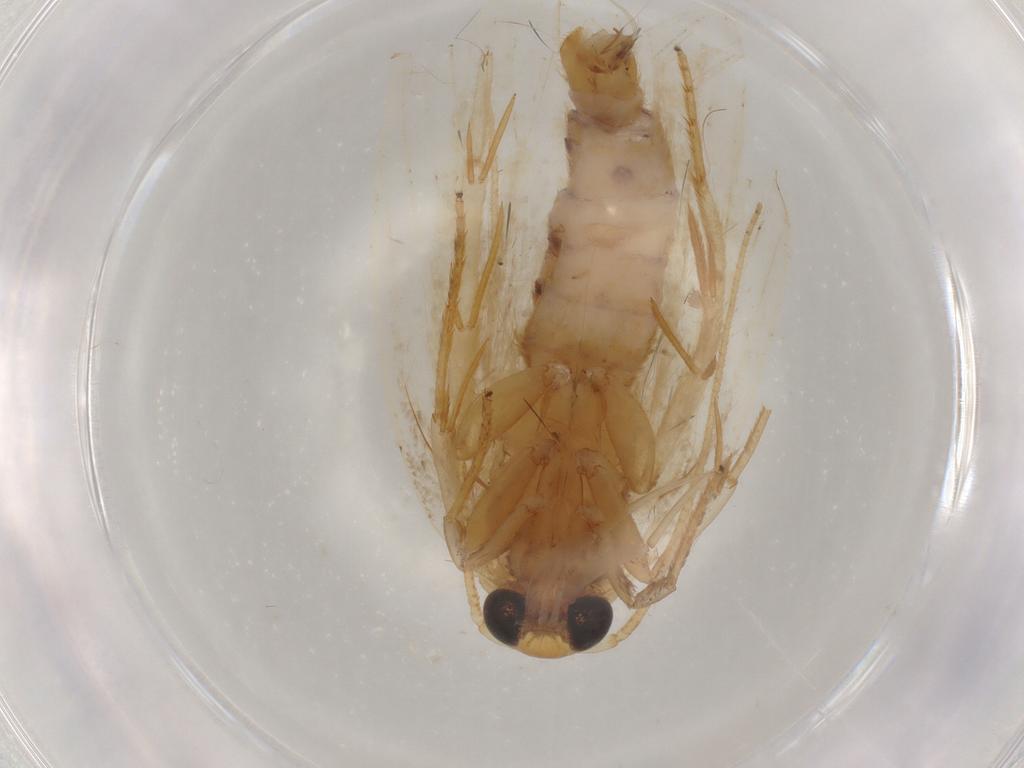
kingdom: Animalia
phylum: Arthropoda
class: Insecta
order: Lepidoptera
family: Depressariidae
